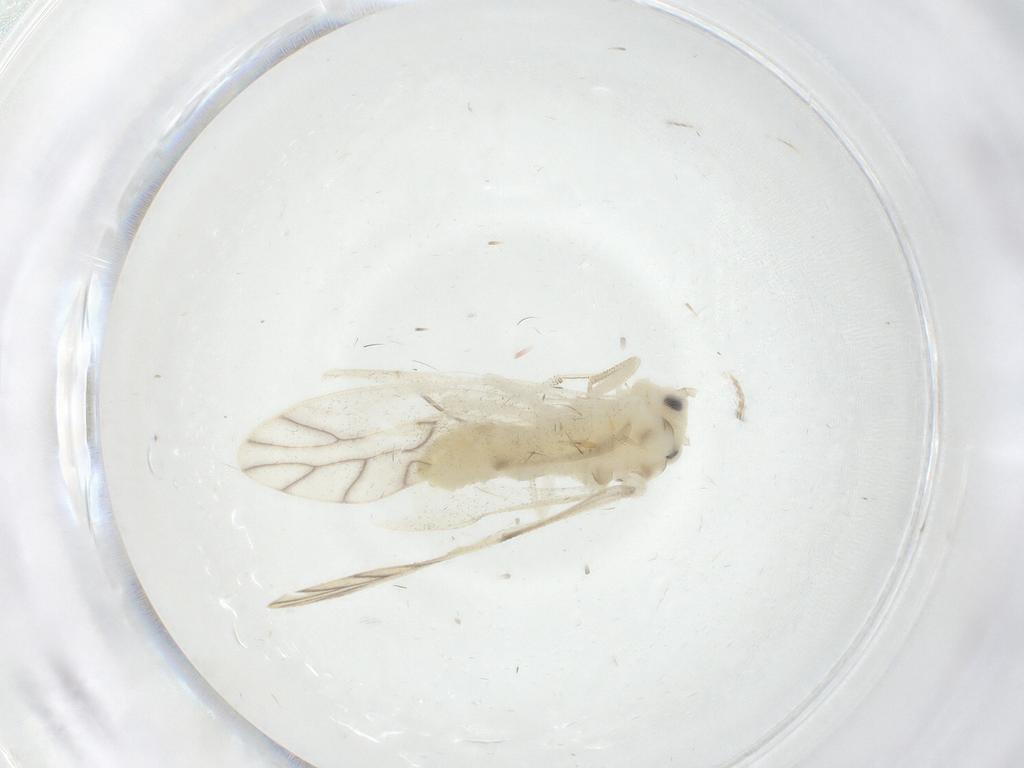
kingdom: Animalia
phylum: Arthropoda
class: Insecta
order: Psocodea
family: Caeciliusidae
